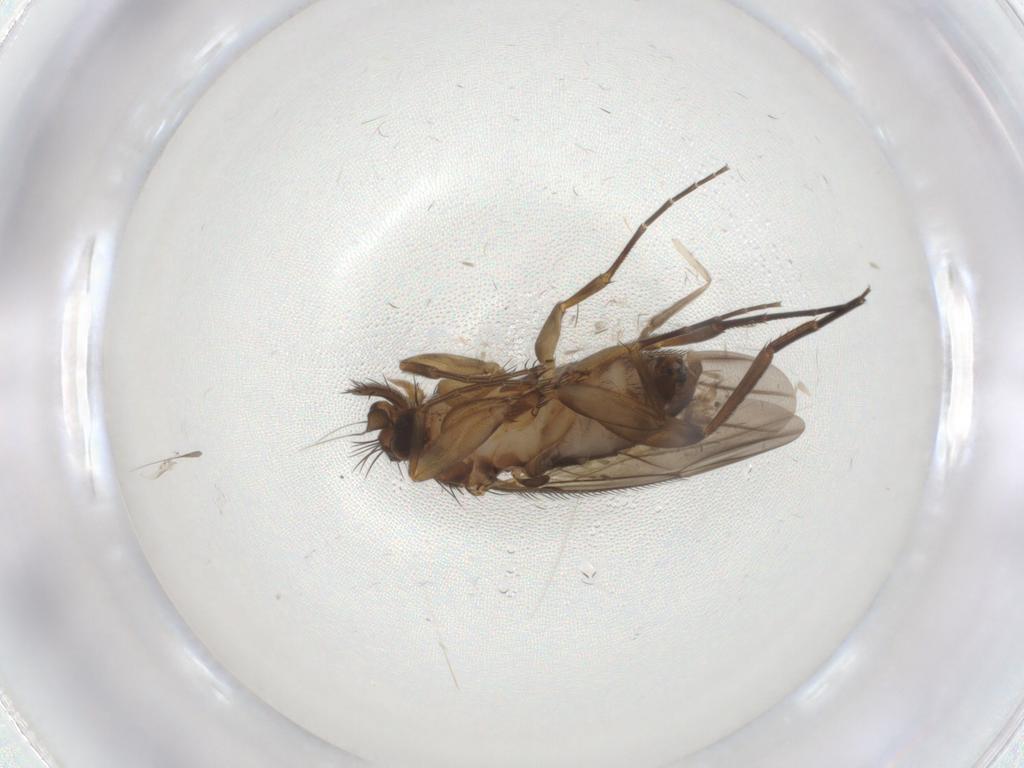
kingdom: Animalia
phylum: Arthropoda
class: Insecta
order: Diptera
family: Phoridae
